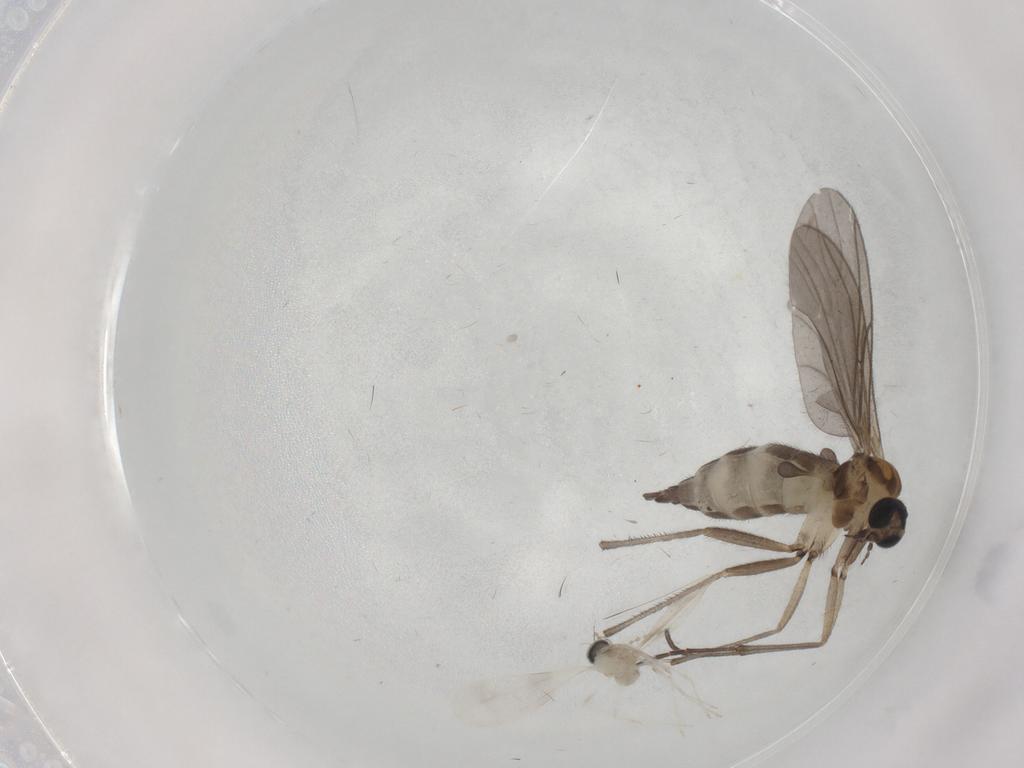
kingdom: Animalia
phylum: Arthropoda
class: Insecta
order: Diptera
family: Sciaridae
